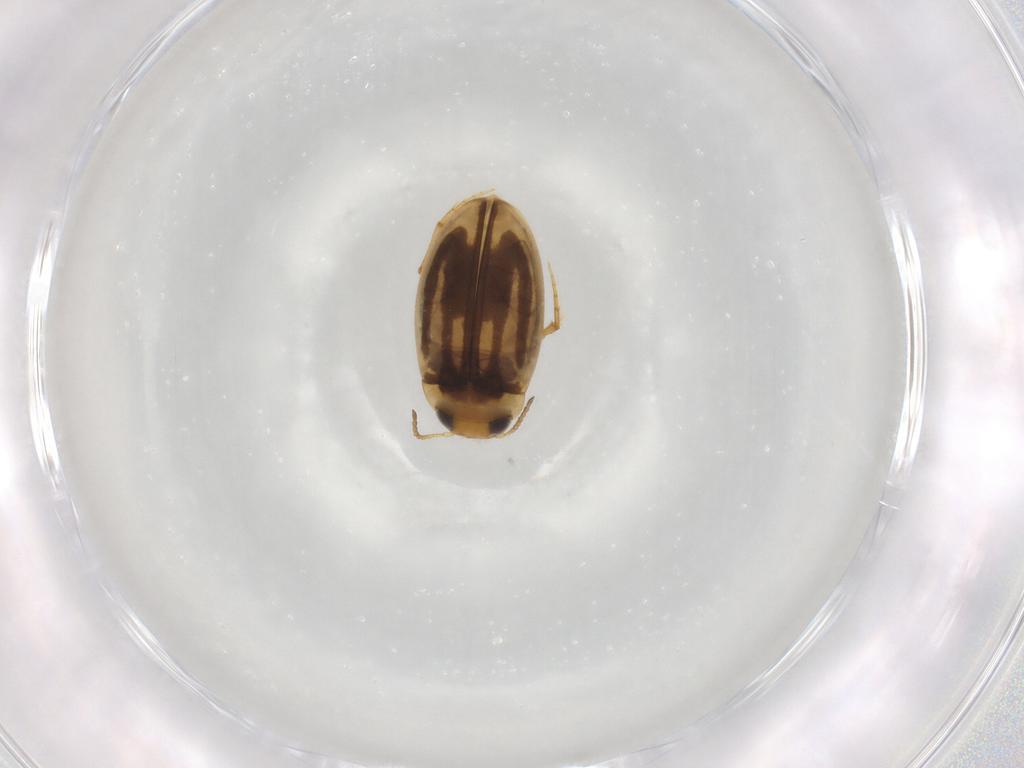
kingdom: Animalia
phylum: Arthropoda
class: Insecta
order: Coleoptera
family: Dytiscidae
